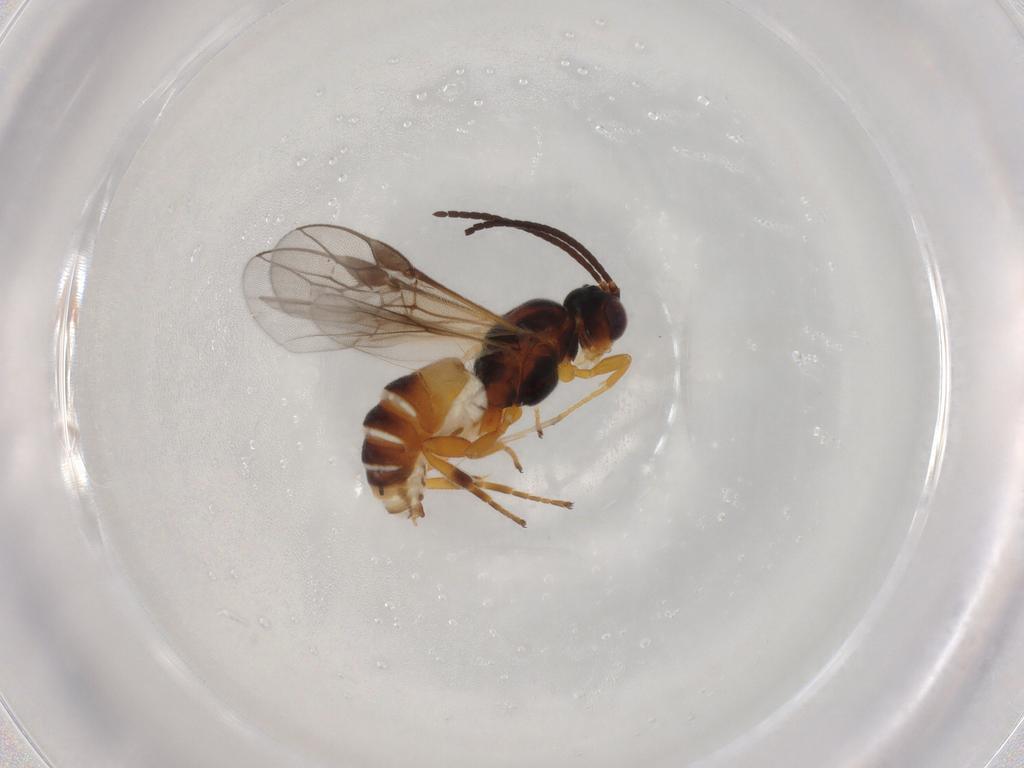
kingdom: Animalia
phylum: Arthropoda
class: Insecta
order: Hymenoptera
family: Braconidae
